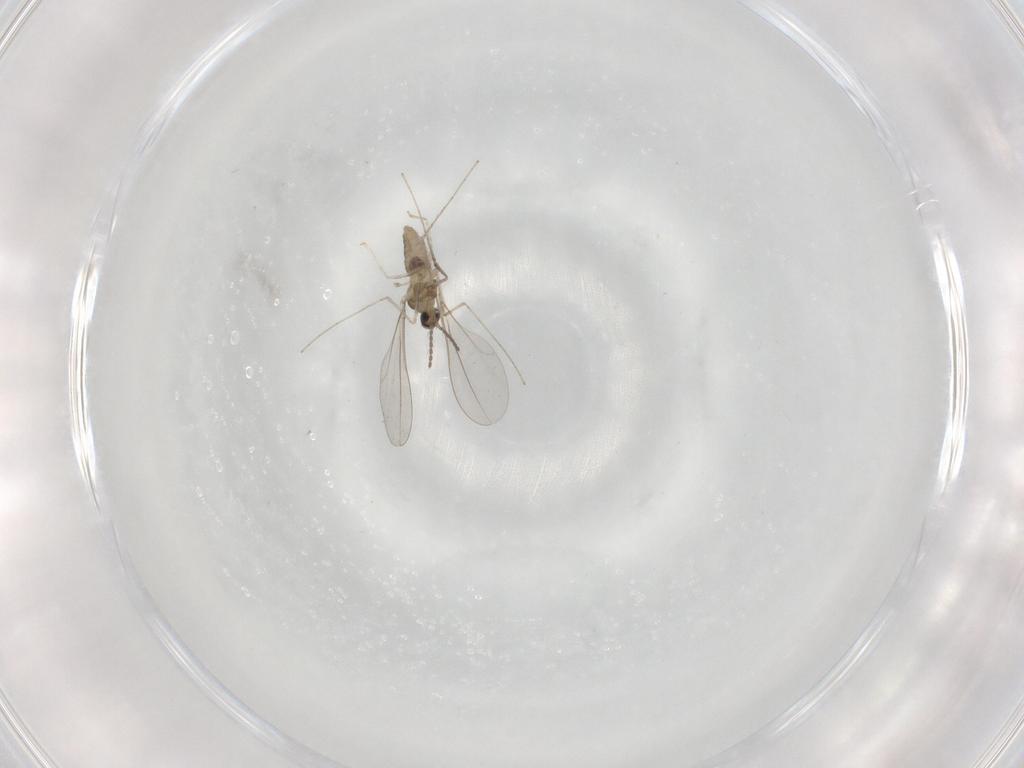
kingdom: Animalia
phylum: Arthropoda
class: Insecta
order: Diptera
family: Cecidomyiidae
